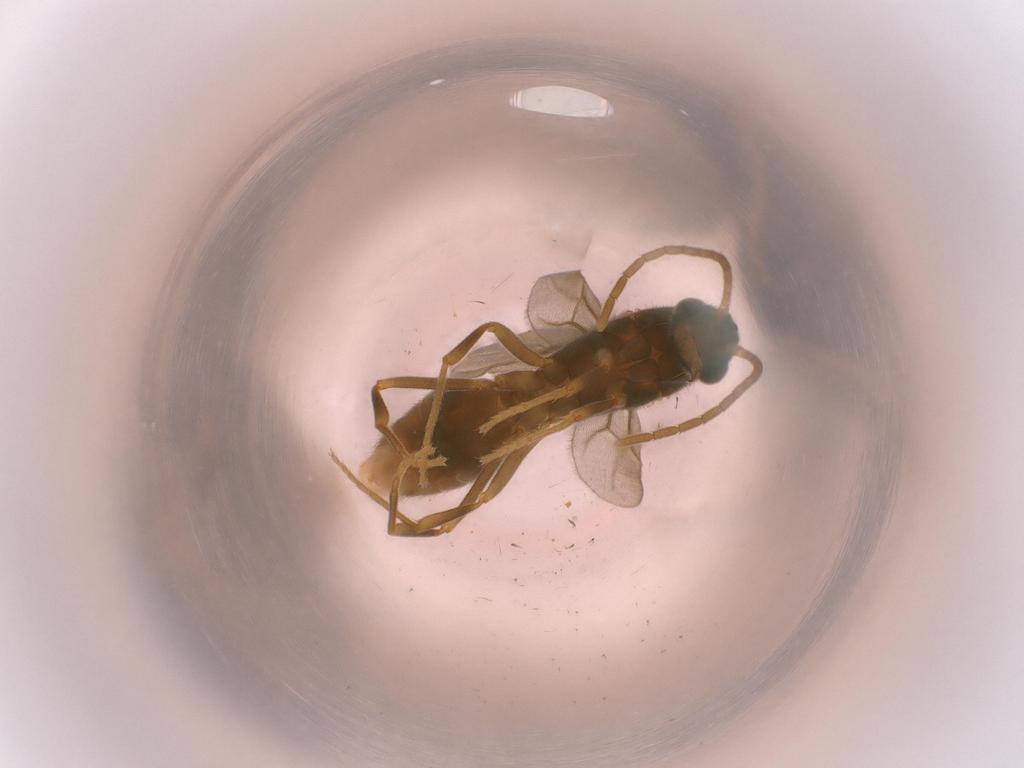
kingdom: Animalia
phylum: Arthropoda
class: Insecta
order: Hymenoptera
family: Formicidae
